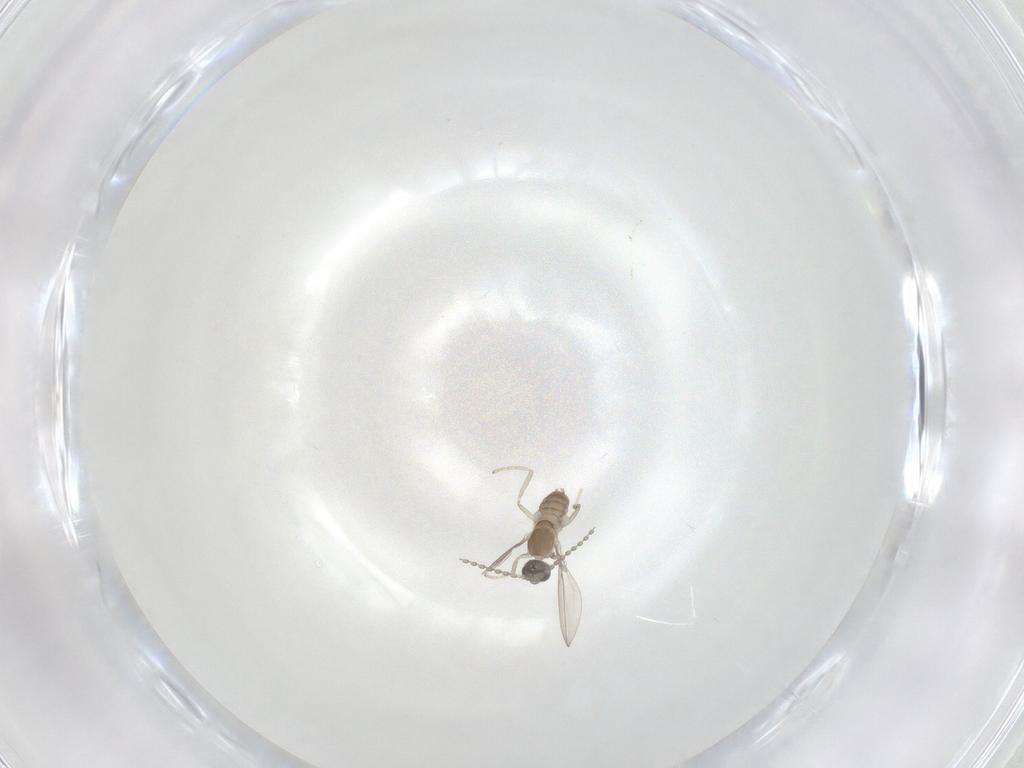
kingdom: Animalia
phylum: Arthropoda
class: Insecta
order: Diptera
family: Cecidomyiidae
